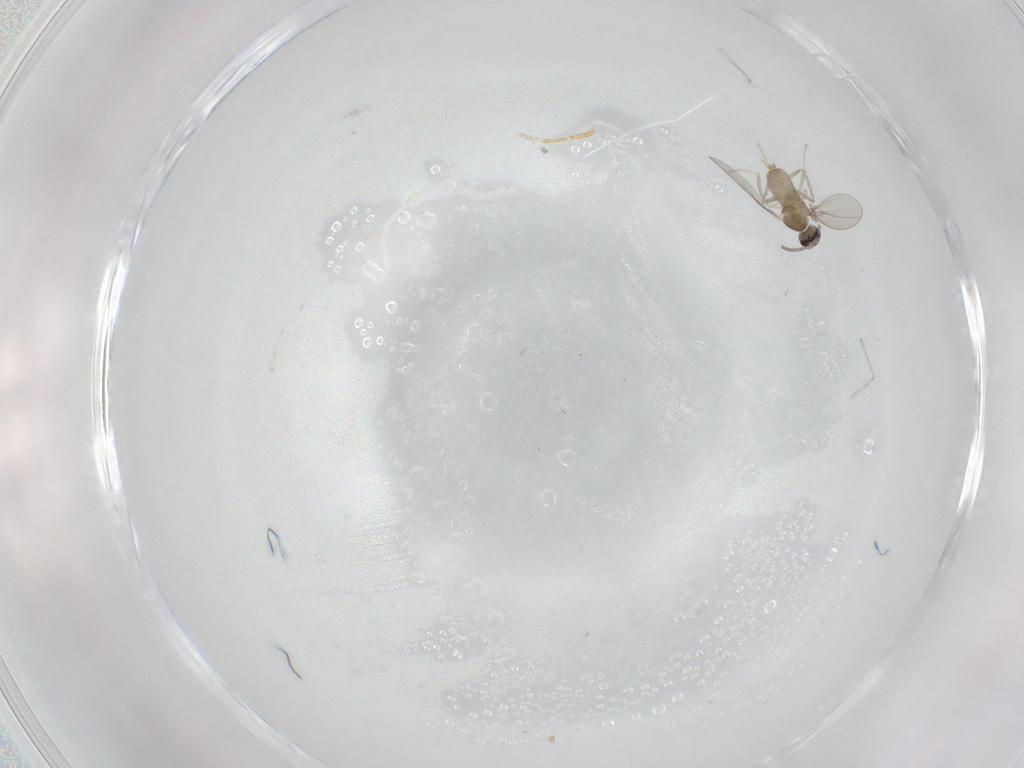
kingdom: Animalia
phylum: Arthropoda
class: Insecta
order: Diptera
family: Cecidomyiidae
